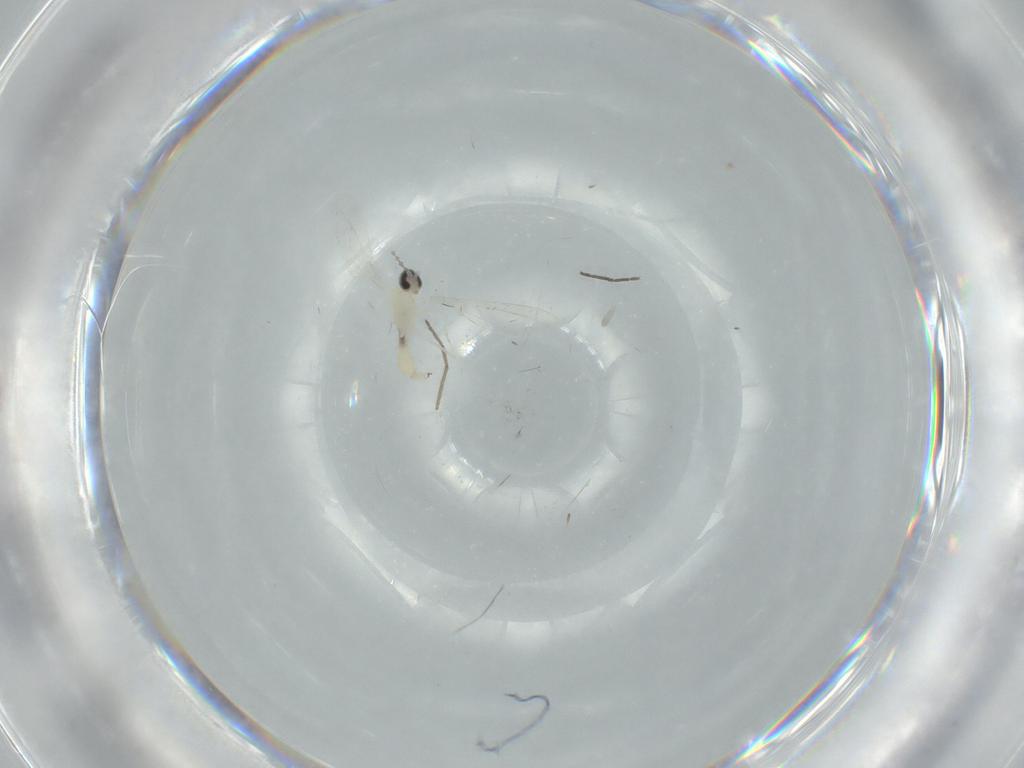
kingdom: Animalia
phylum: Arthropoda
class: Insecta
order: Diptera
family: Chironomidae
